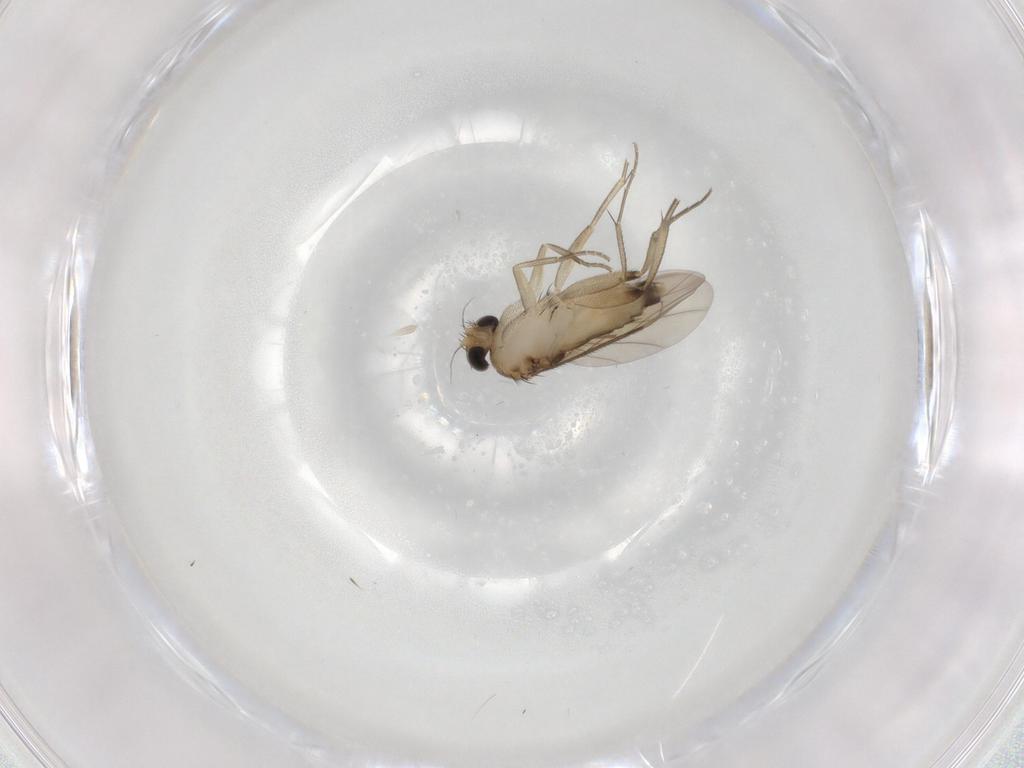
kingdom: Animalia
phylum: Arthropoda
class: Insecta
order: Diptera
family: Phoridae
